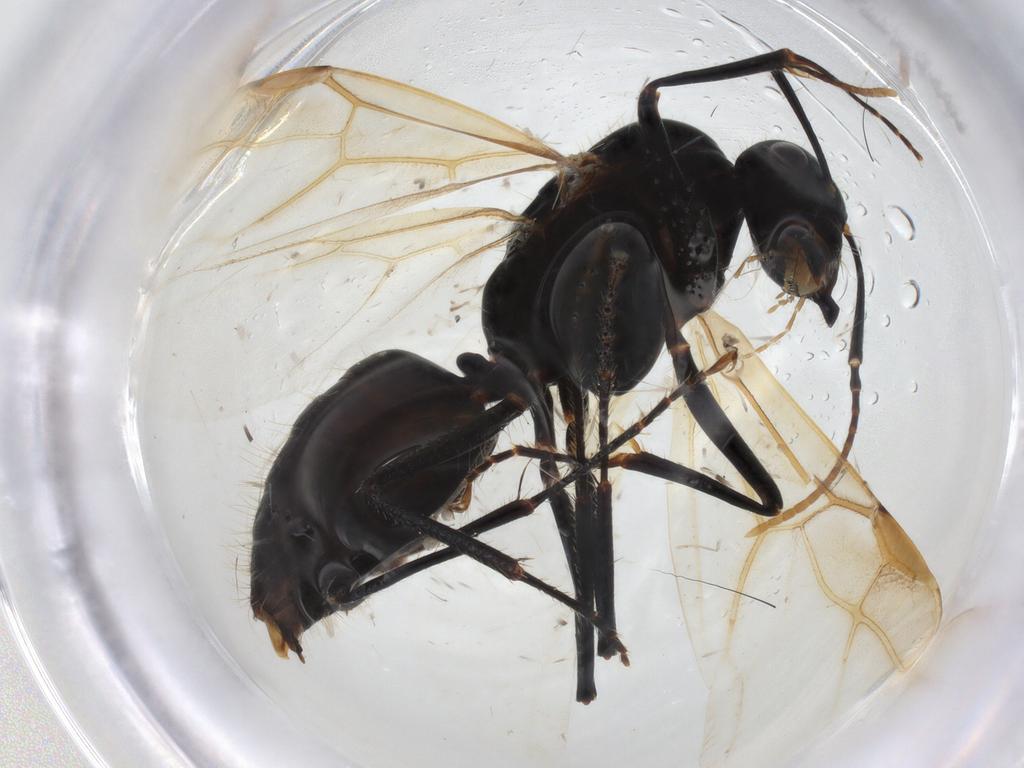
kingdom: Animalia
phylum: Arthropoda
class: Insecta
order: Hymenoptera
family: Formicidae
